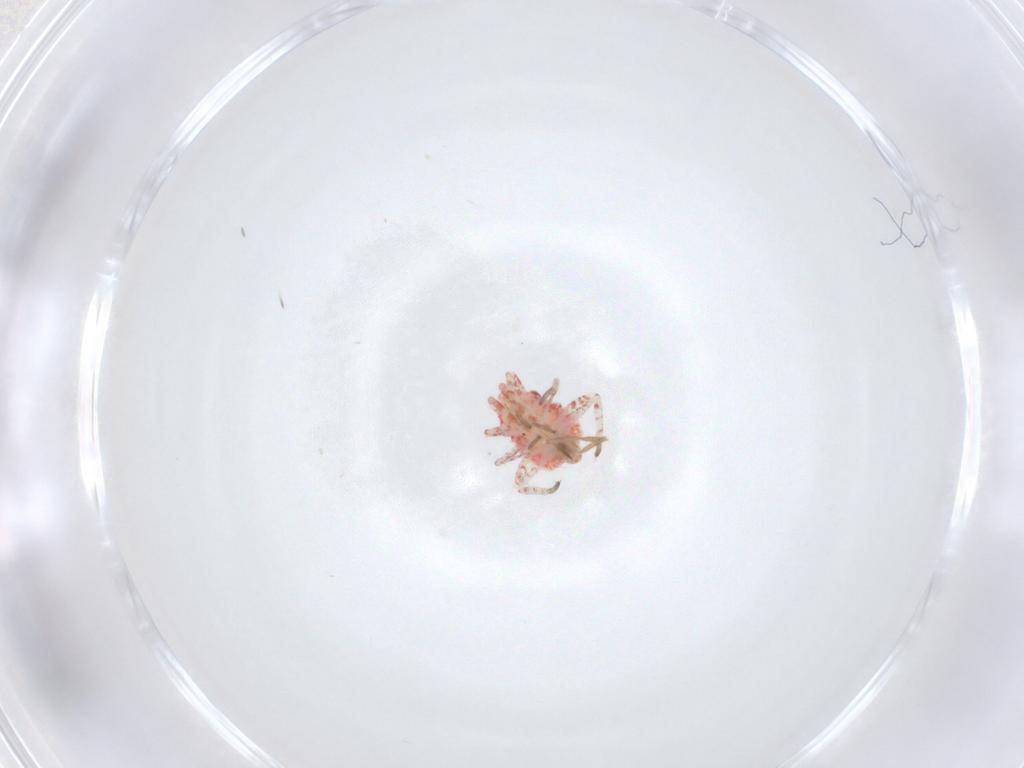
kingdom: Animalia
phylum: Arthropoda
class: Insecta
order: Hemiptera
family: Miridae
